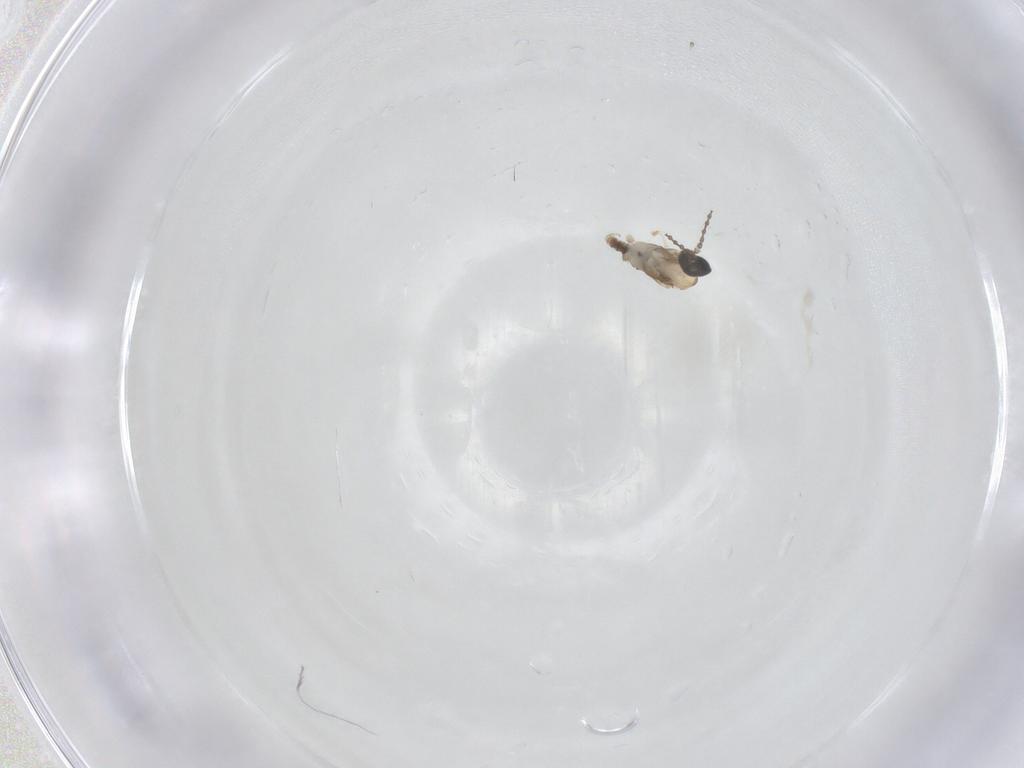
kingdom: Animalia
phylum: Arthropoda
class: Insecta
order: Diptera
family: Cecidomyiidae
